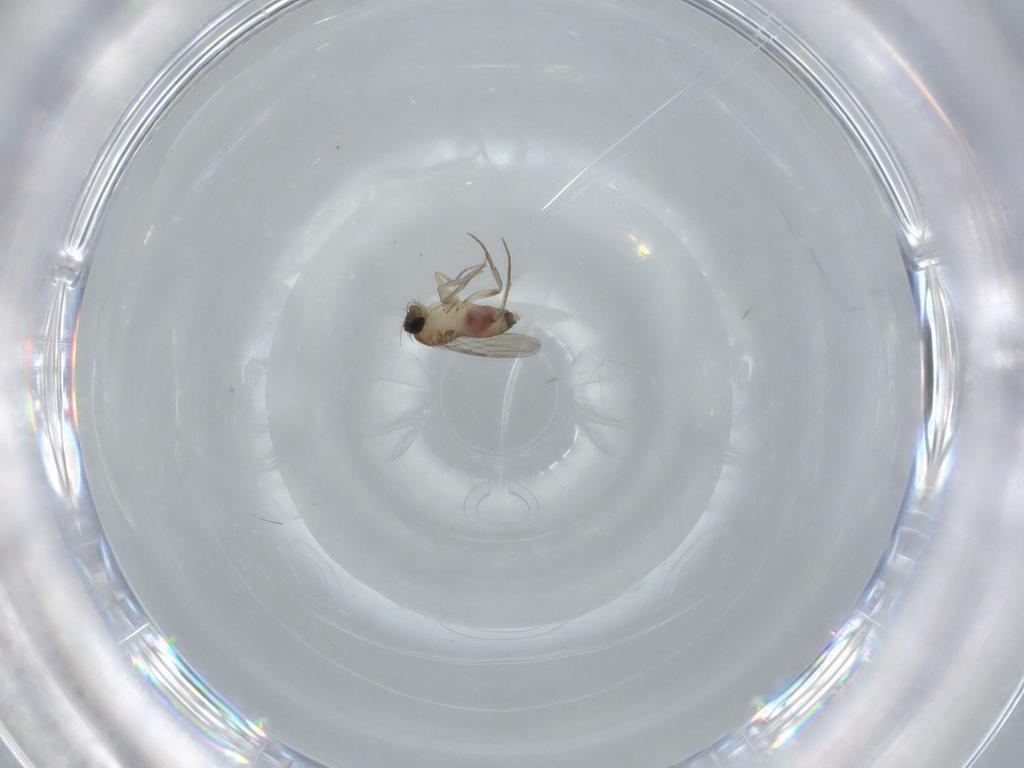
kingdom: Animalia
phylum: Arthropoda
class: Insecta
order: Diptera
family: Phoridae
